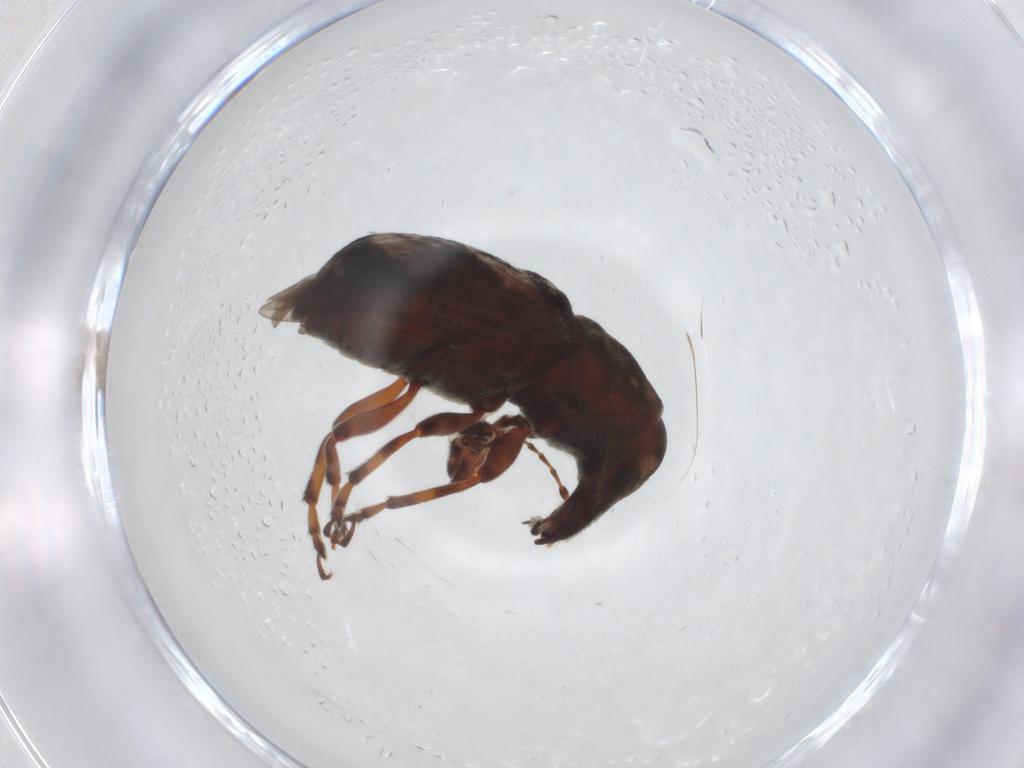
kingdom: Animalia
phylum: Arthropoda
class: Insecta
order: Coleoptera
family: Anthribidae
